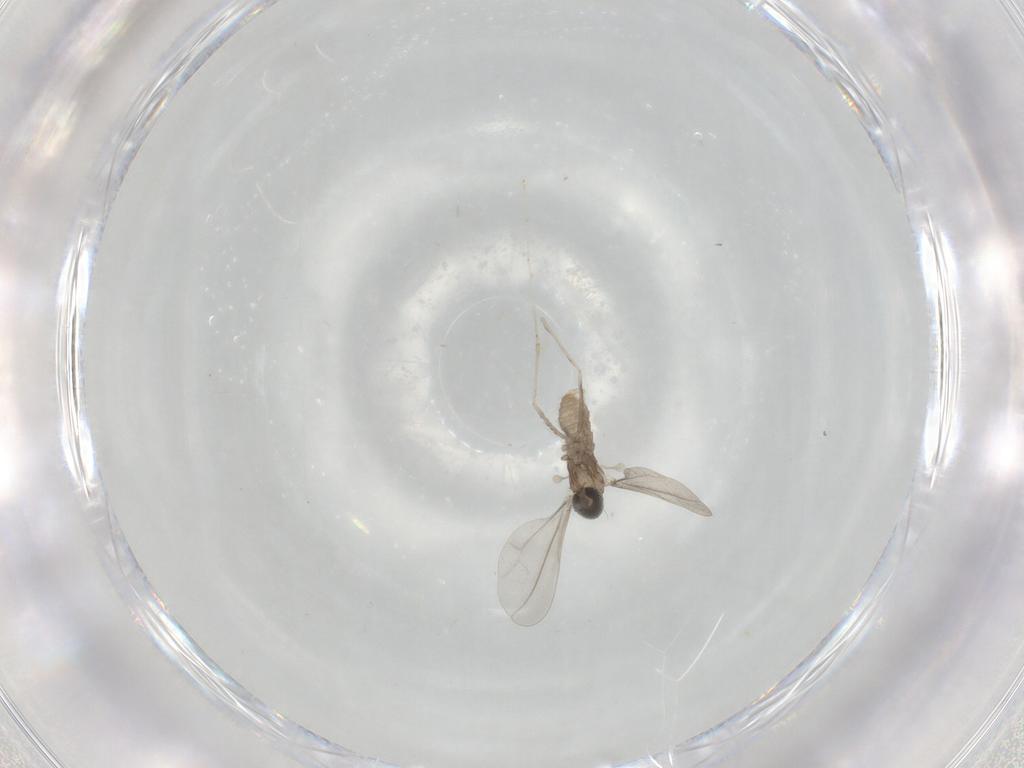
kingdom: Animalia
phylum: Arthropoda
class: Insecta
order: Diptera
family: Cecidomyiidae
